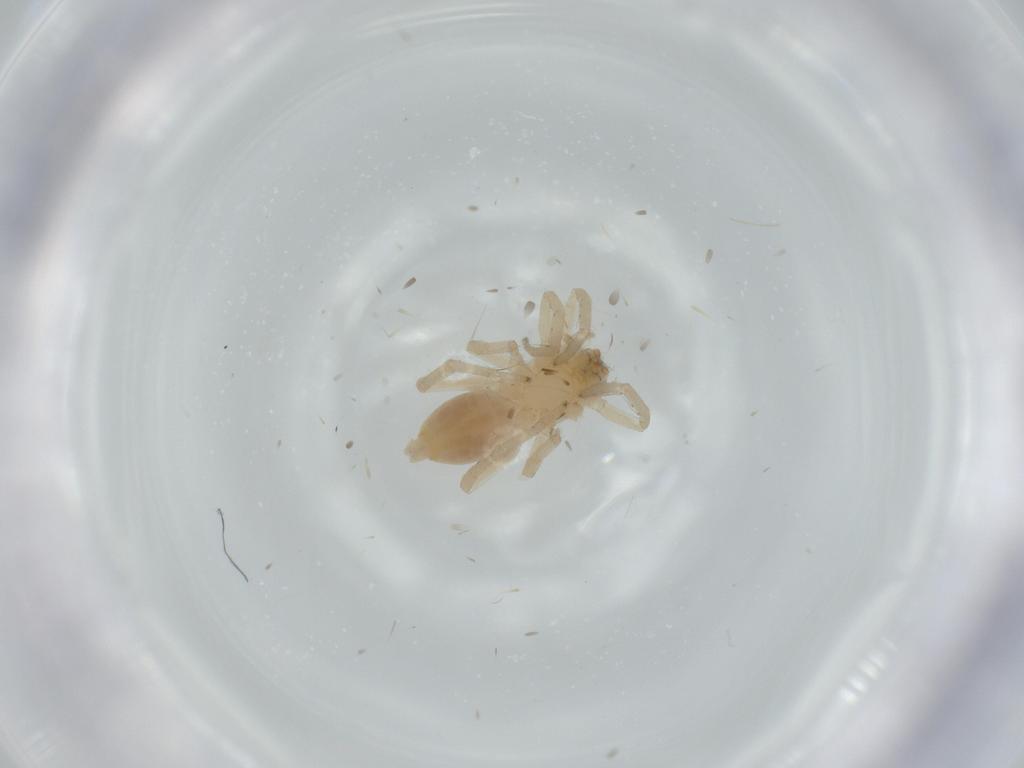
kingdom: Animalia
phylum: Arthropoda
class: Arachnida
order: Araneae
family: Clubionidae
